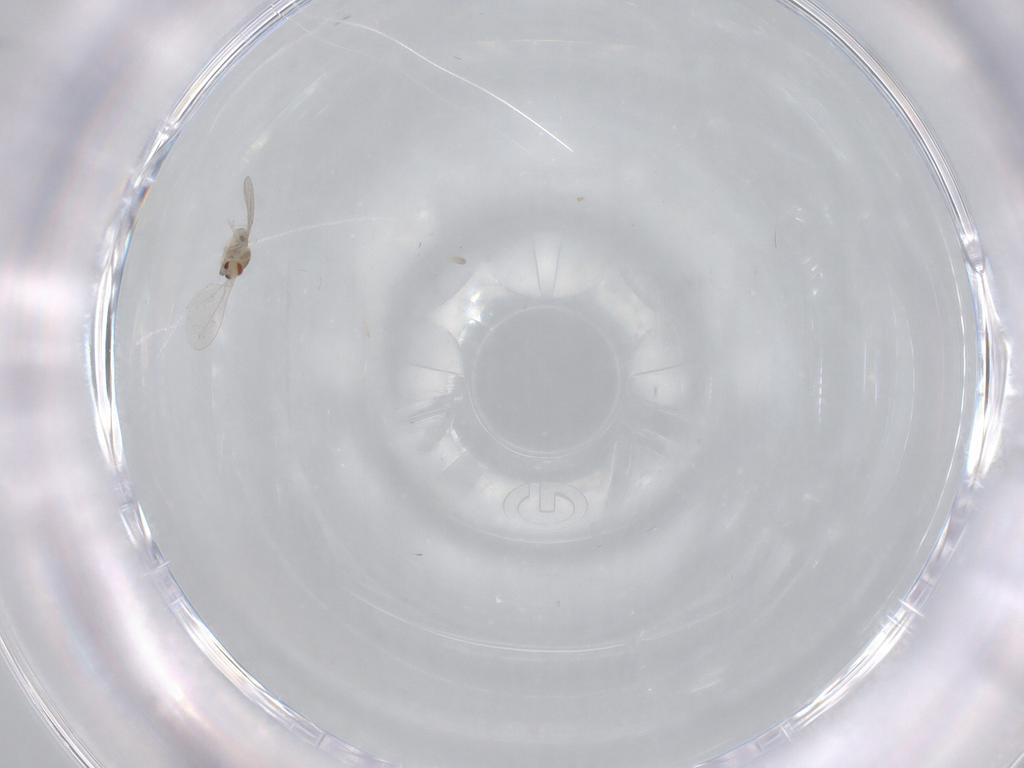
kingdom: Animalia
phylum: Arthropoda
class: Insecta
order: Diptera
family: Cecidomyiidae
